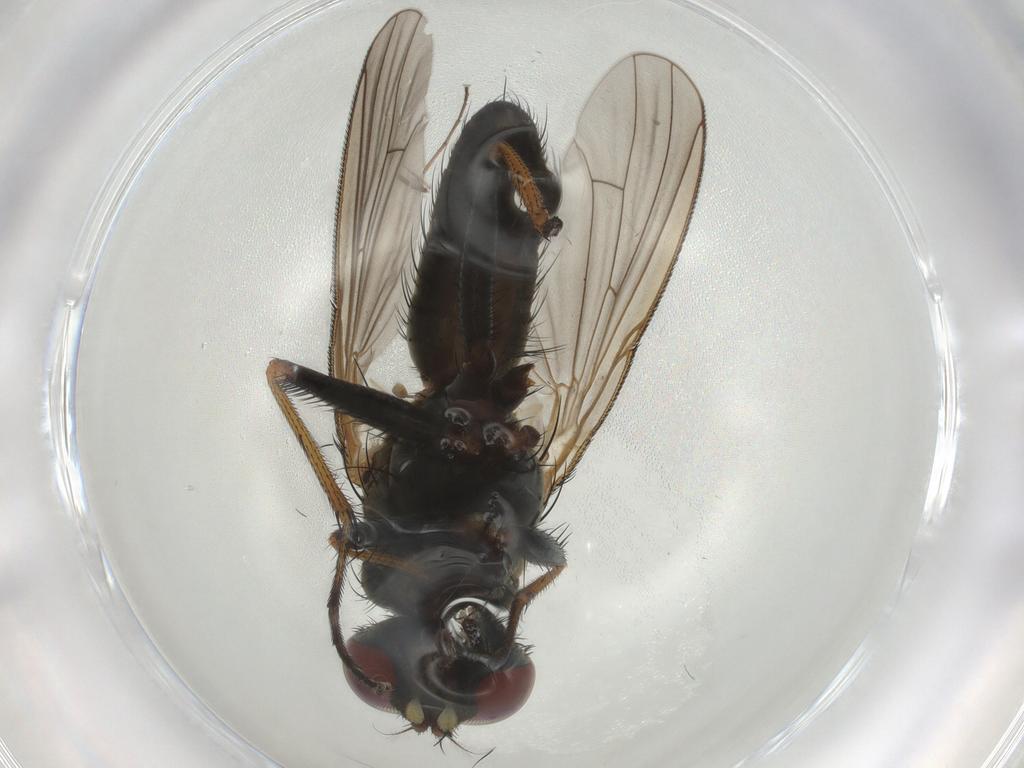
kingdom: Animalia
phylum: Arthropoda
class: Insecta
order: Diptera
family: Muscidae
